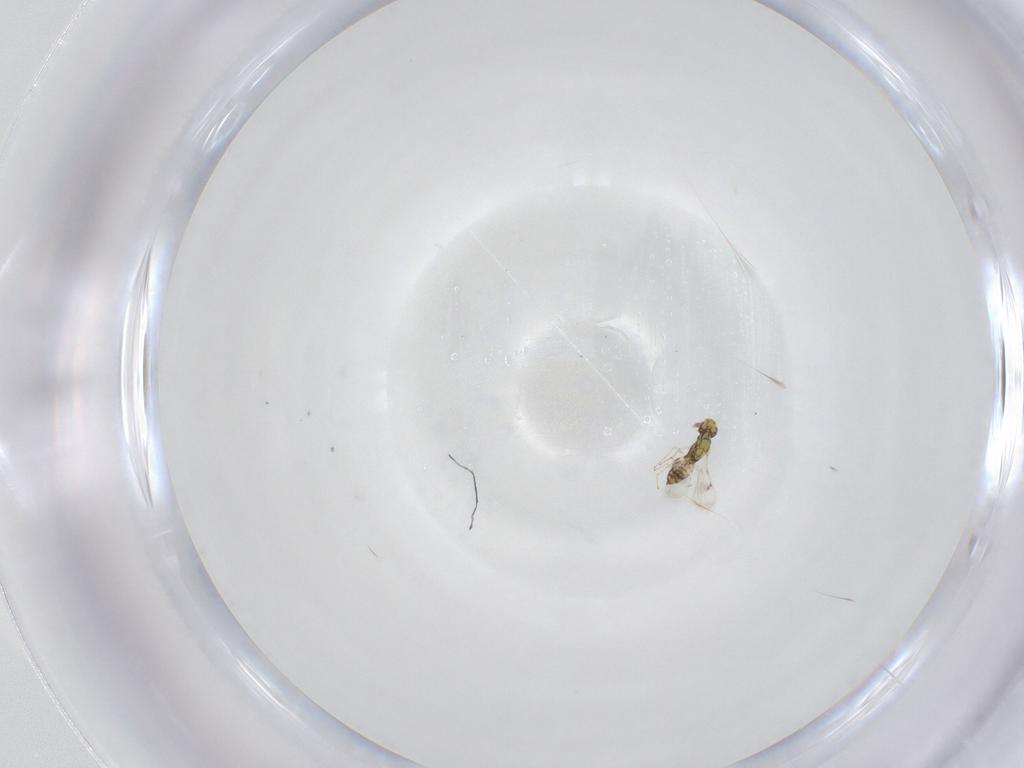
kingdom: Animalia
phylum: Arthropoda
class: Insecta
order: Hymenoptera
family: Eulophidae
